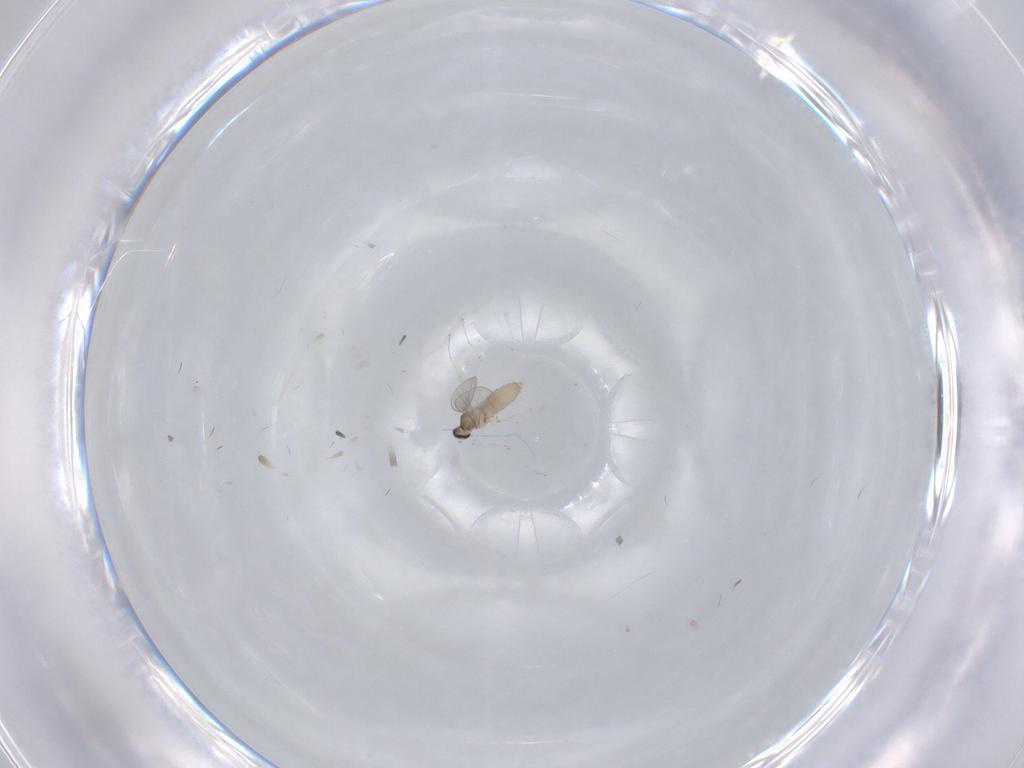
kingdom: Animalia
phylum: Arthropoda
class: Insecta
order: Diptera
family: Cecidomyiidae
